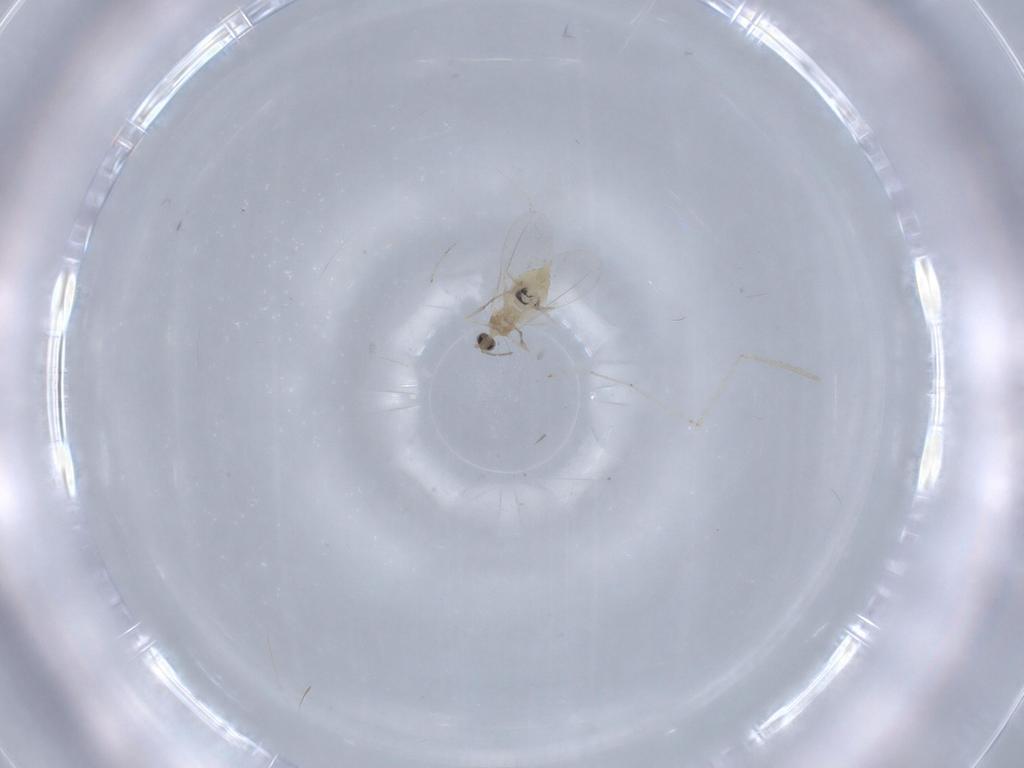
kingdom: Animalia
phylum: Arthropoda
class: Insecta
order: Diptera
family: Cecidomyiidae
